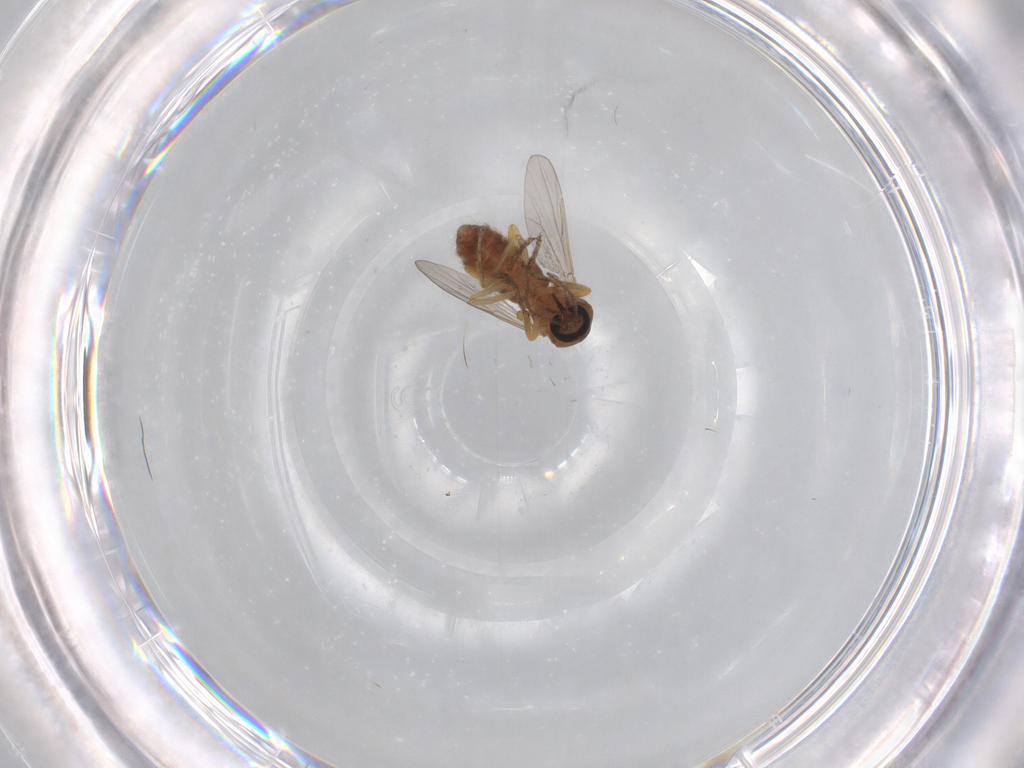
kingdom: Animalia
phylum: Arthropoda
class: Insecta
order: Diptera
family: Ceratopogonidae
